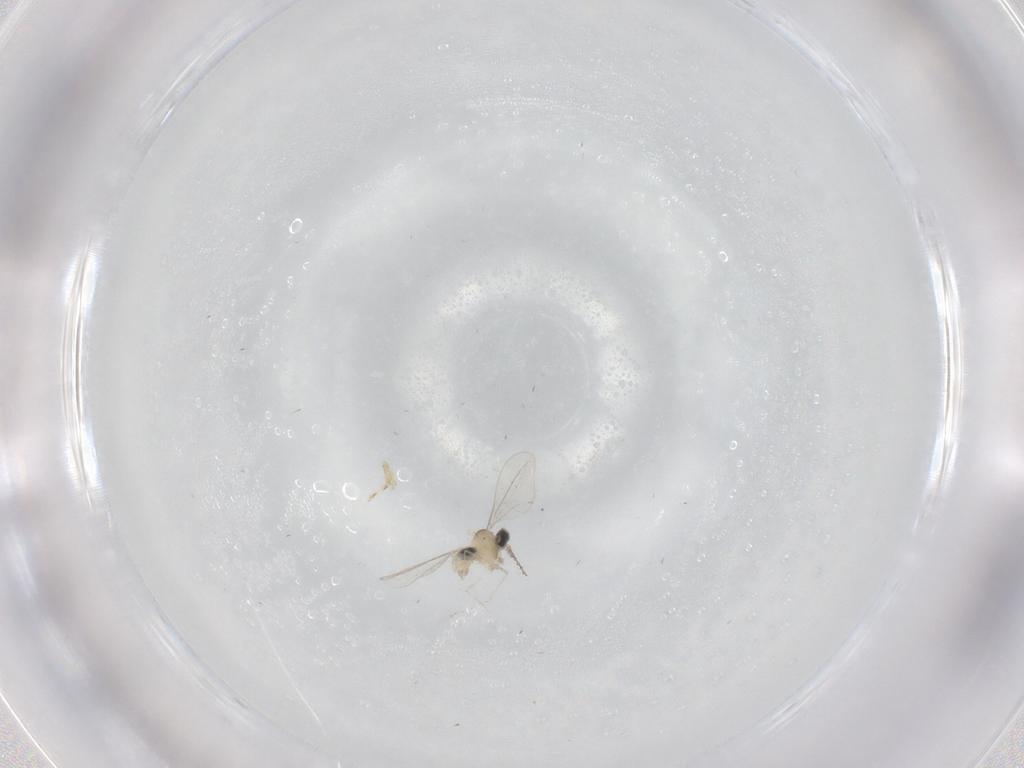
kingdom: Animalia
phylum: Arthropoda
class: Insecta
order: Diptera
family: Cecidomyiidae
